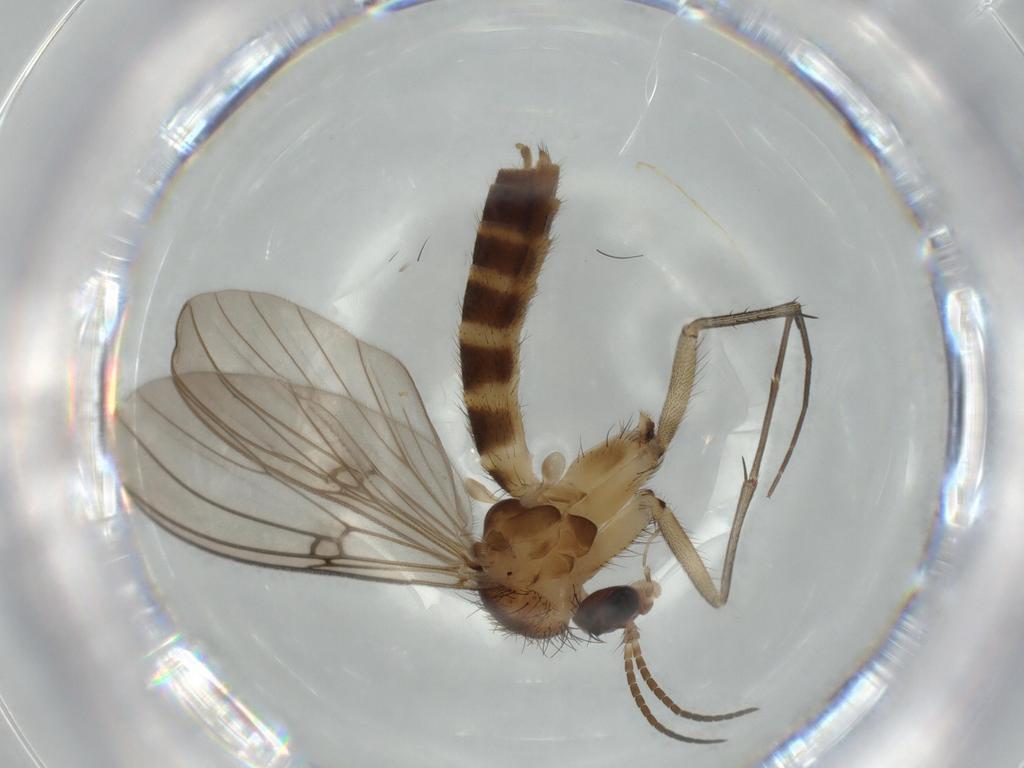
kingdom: Animalia
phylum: Arthropoda
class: Insecta
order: Diptera
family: Mycetophilidae
